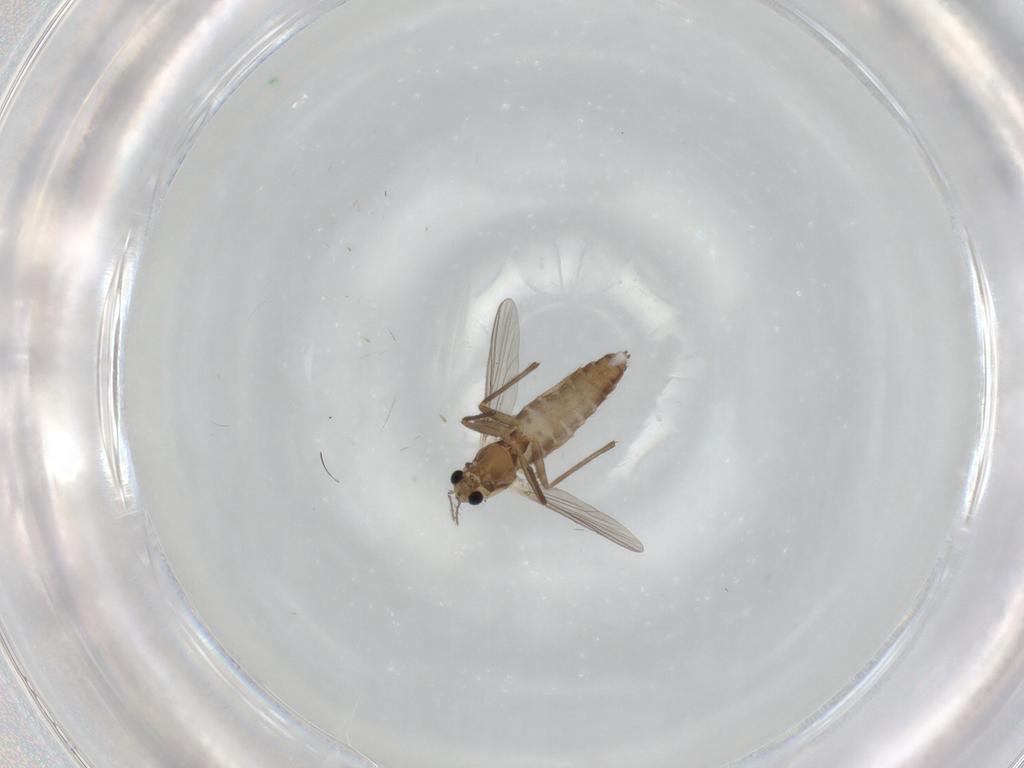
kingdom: Animalia
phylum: Arthropoda
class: Insecta
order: Diptera
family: Chironomidae
